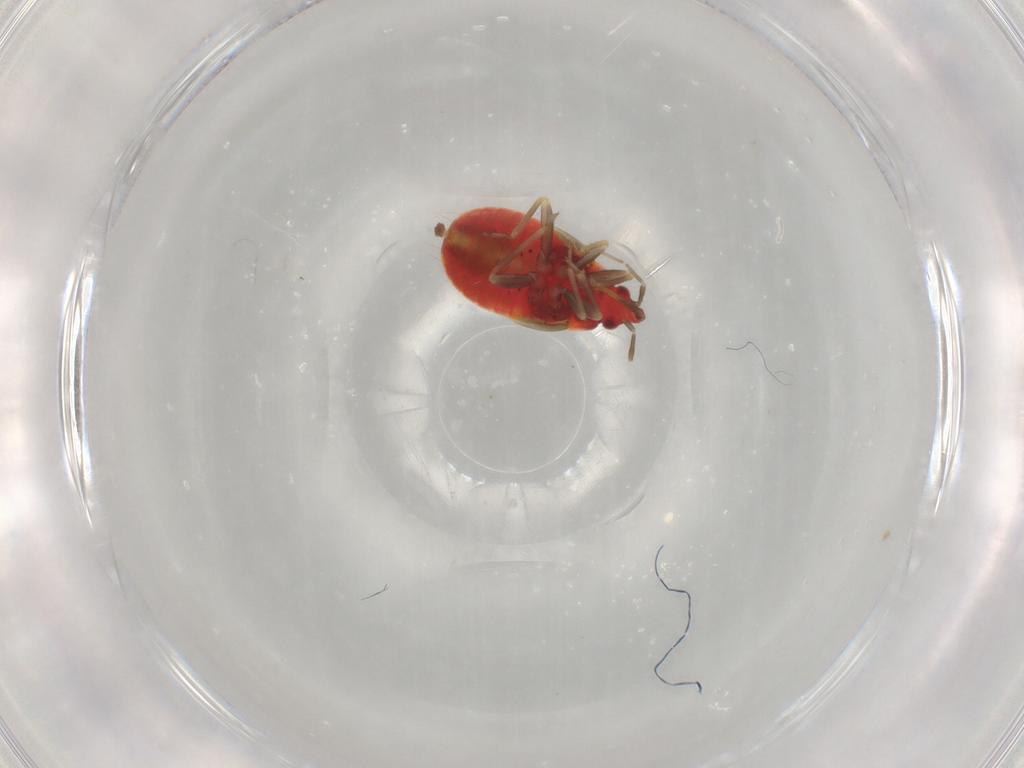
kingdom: Animalia
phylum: Arthropoda
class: Insecta
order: Hemiptera
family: Anthocoridae
